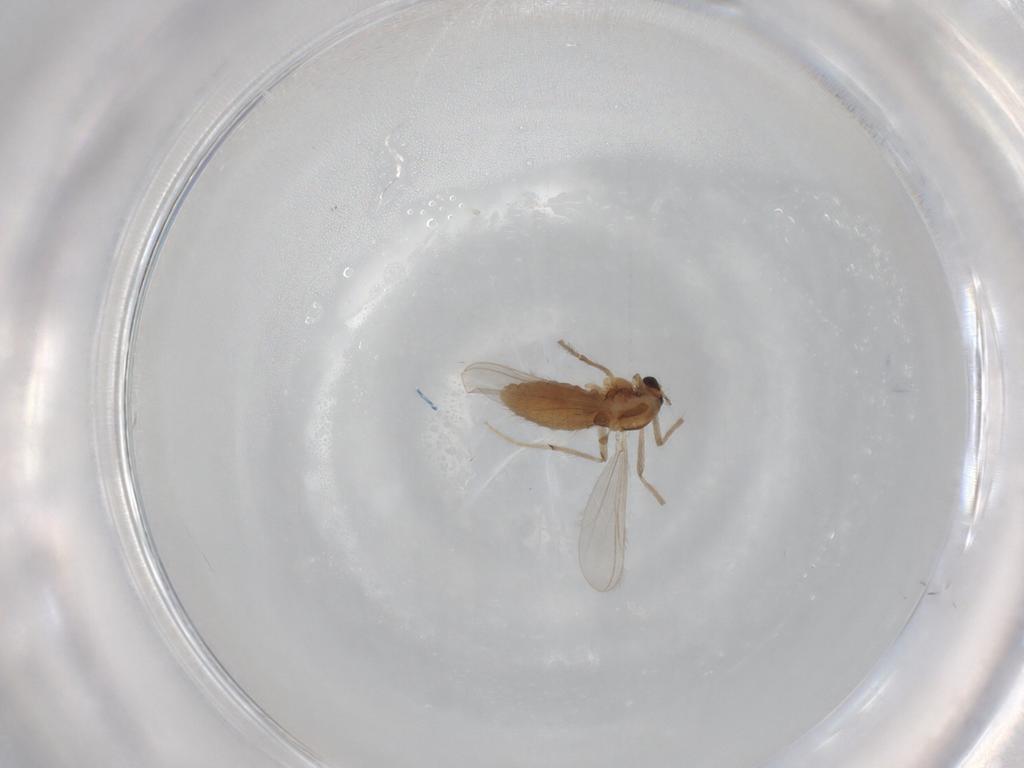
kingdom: Animalia
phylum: Arthropoda
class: Insecta
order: Diptera
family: Chironomidae
